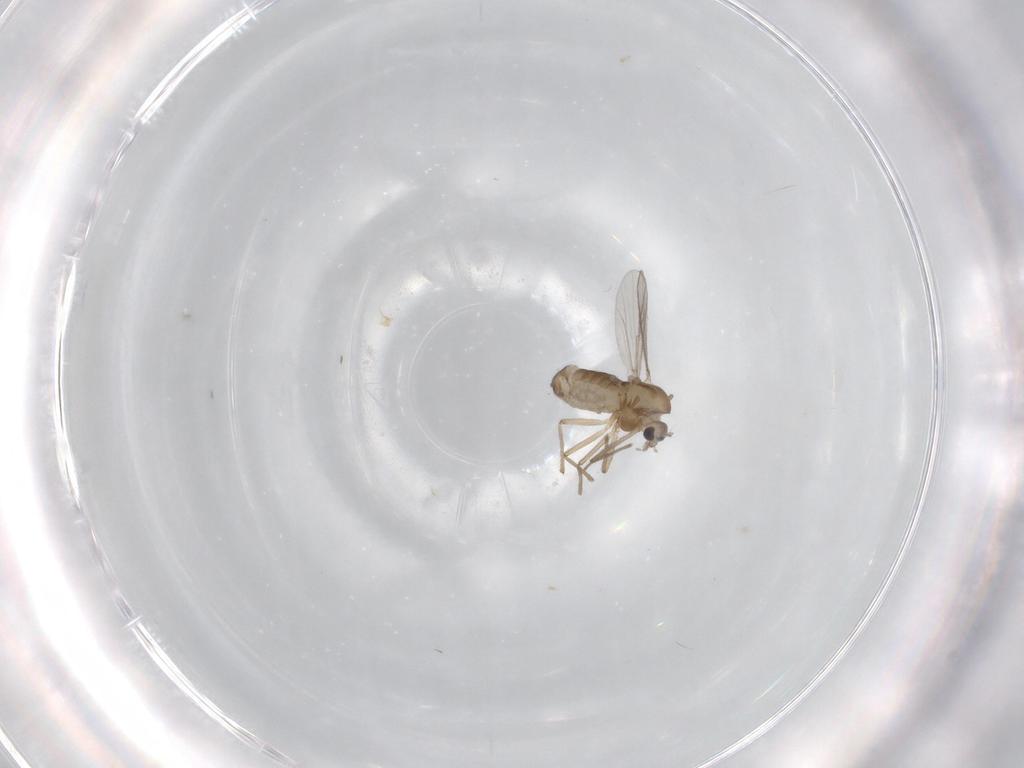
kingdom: Animalia
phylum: Arthropoda
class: Insecta
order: Diptera
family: Chironomidae
